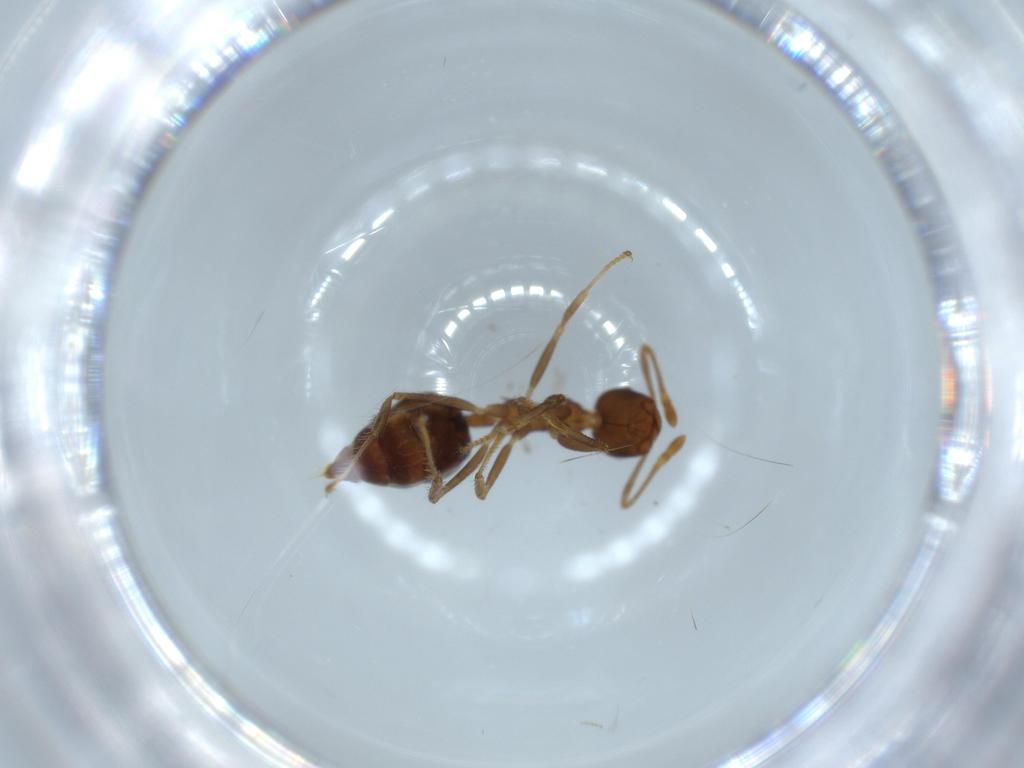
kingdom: Animalia
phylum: Arthropoda
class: Insecta
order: Hymenoptera
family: Formicidae
